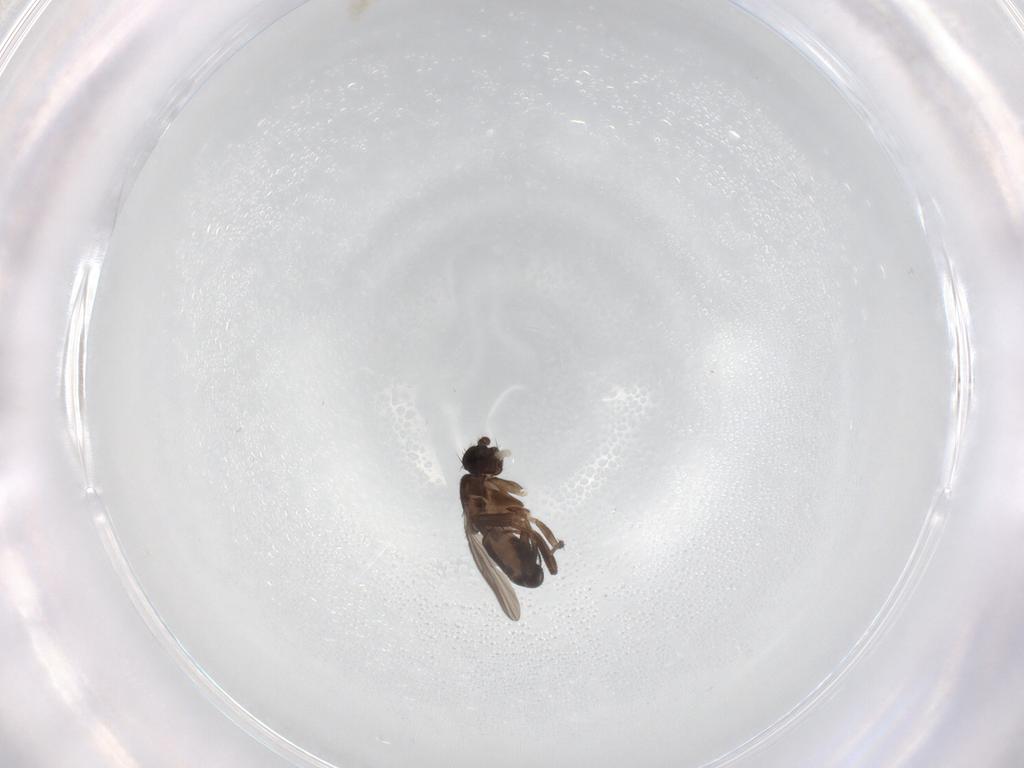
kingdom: Animalia
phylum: Arthropoda
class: Insecta
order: Diptera
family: Sphaeroceridae
